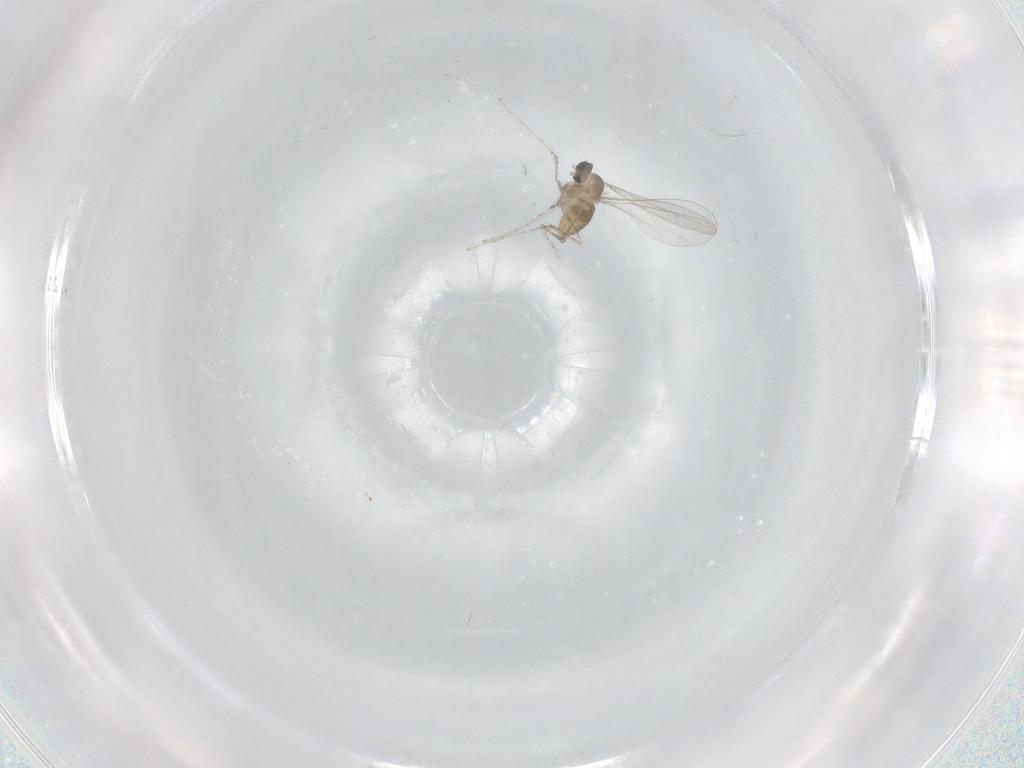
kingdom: Animalia
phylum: Arthropoda
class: Insecta
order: Diptera
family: Cecidomyiidae
